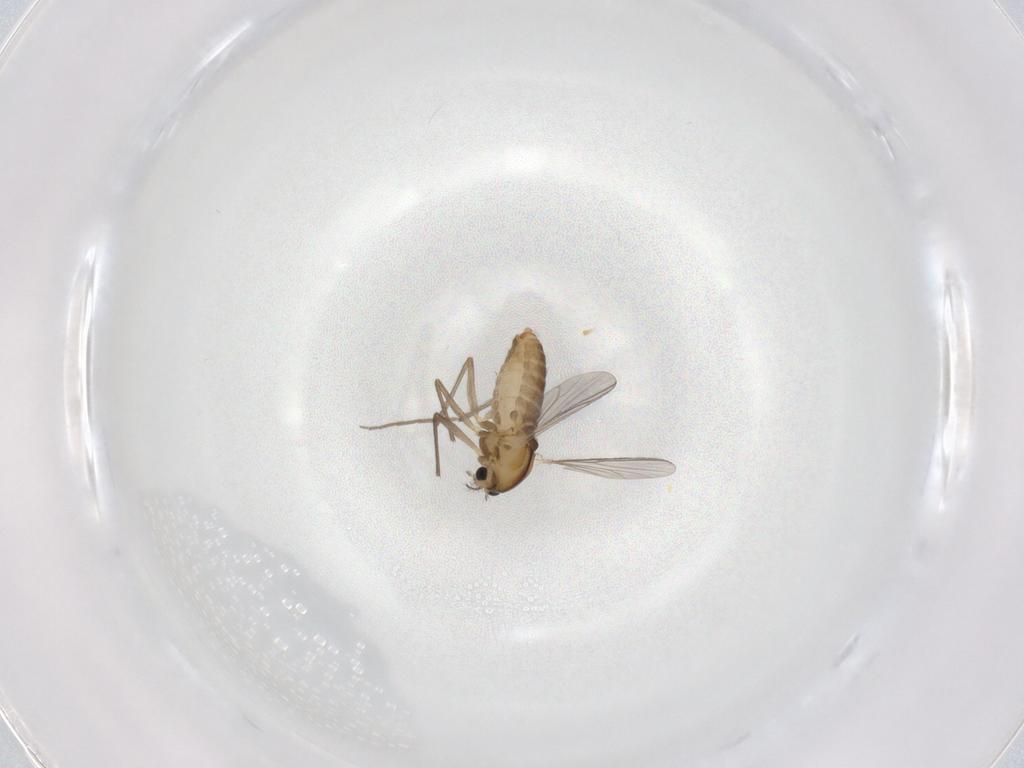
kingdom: Animalia
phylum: Arthropoda
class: Insecta
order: Diptera
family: Chironomidae
